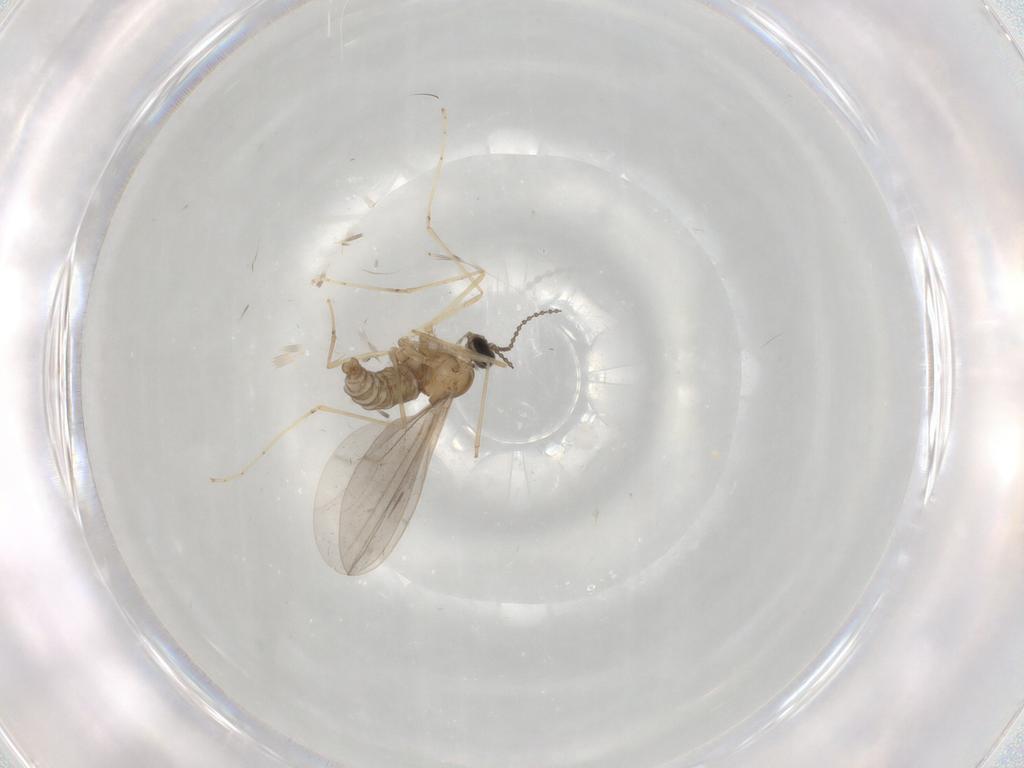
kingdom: Animalia
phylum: Arthropoda
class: Insecta
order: Diptera
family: Cecidomyiidae
